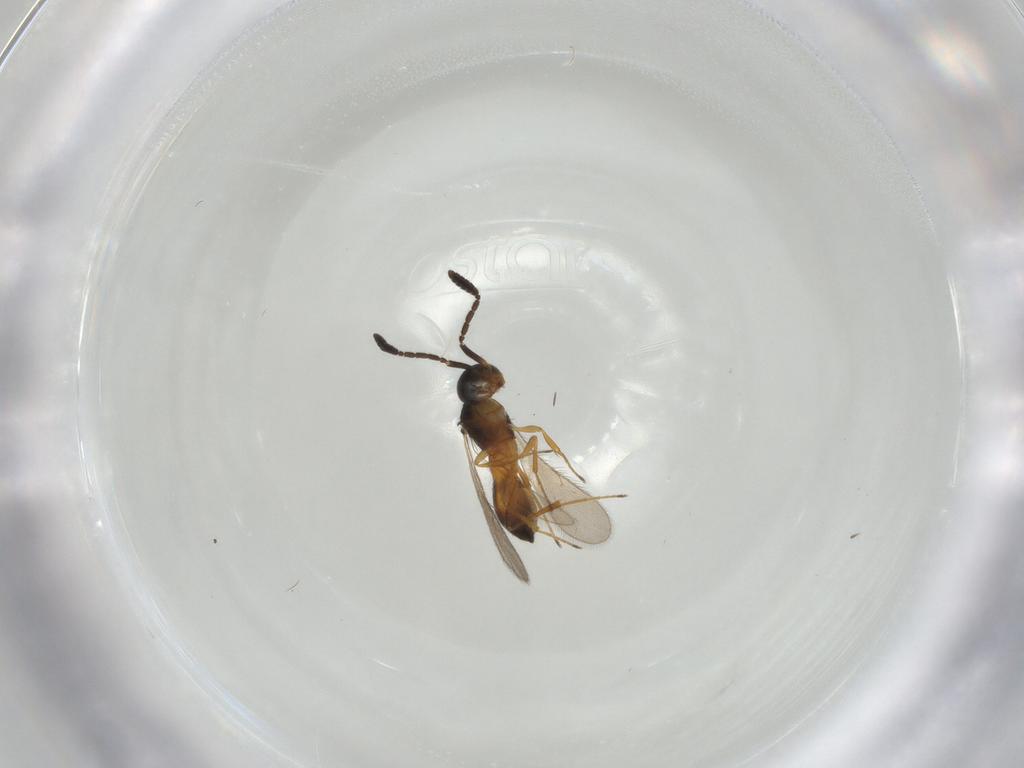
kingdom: Animalia
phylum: Arthropoda
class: Insecta
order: Hymenoptera
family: Scelionidae
